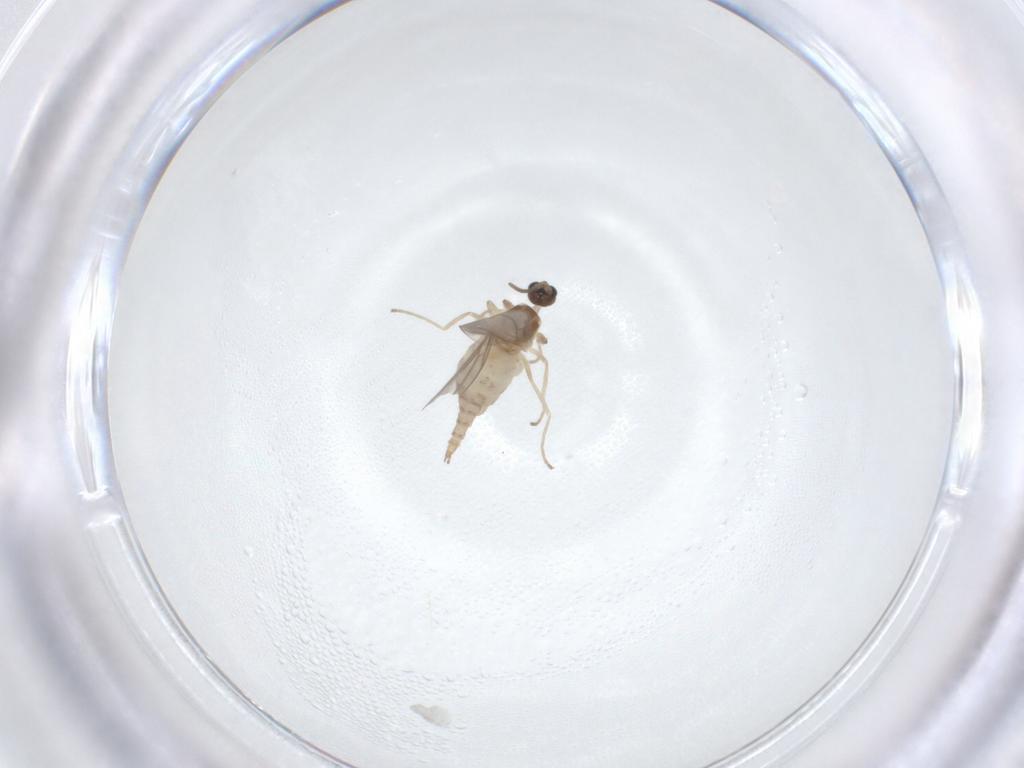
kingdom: Animalia
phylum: Arthropoda
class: Insecta
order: Diptera
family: Cecidomyiidae
